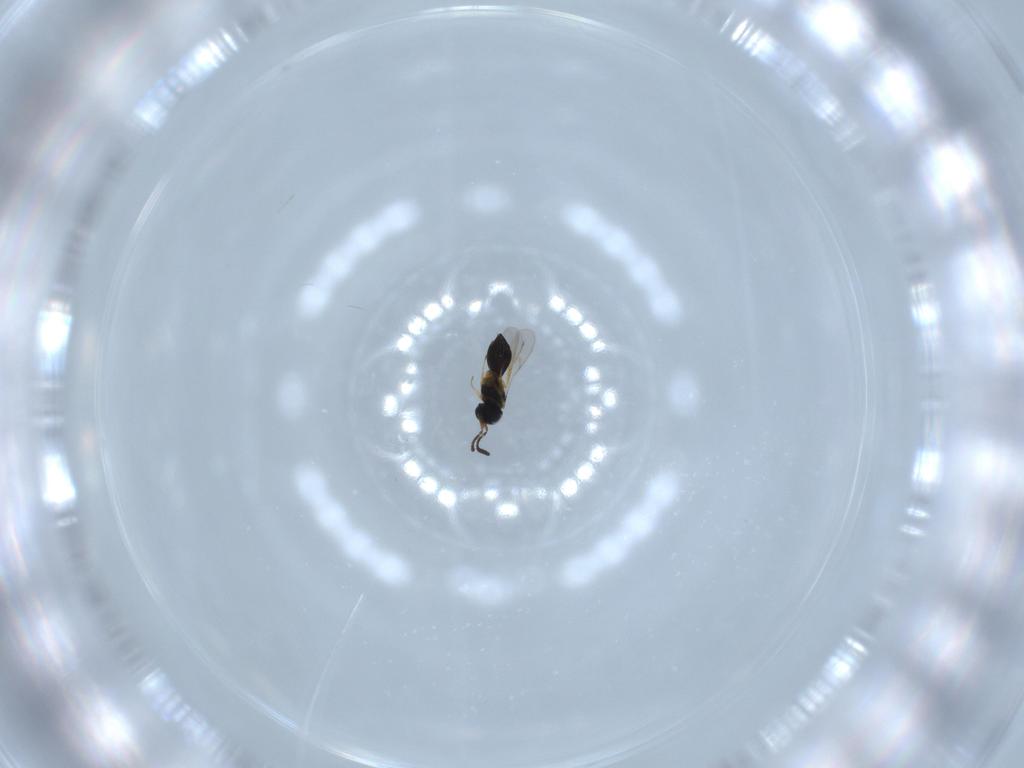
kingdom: Animalia
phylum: Arthropoda
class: Insecta
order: Hymenoptera
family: Scelionidae
